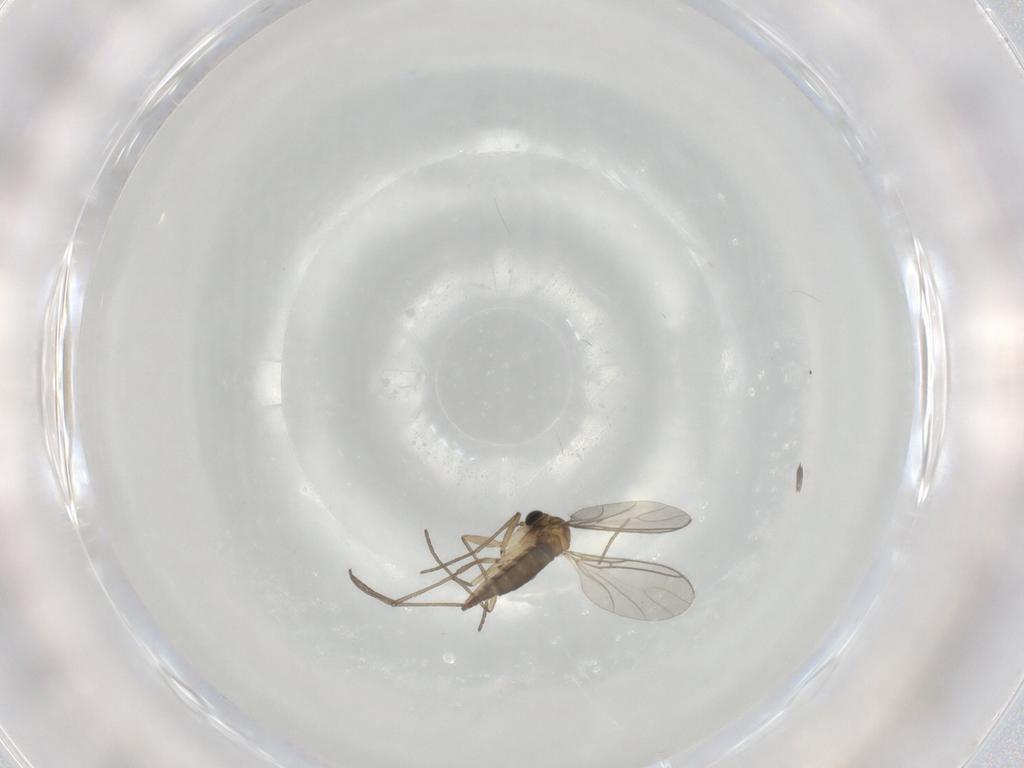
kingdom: Animalia
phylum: Arthropoda
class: Insecta
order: Diptera
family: Sciaridae
